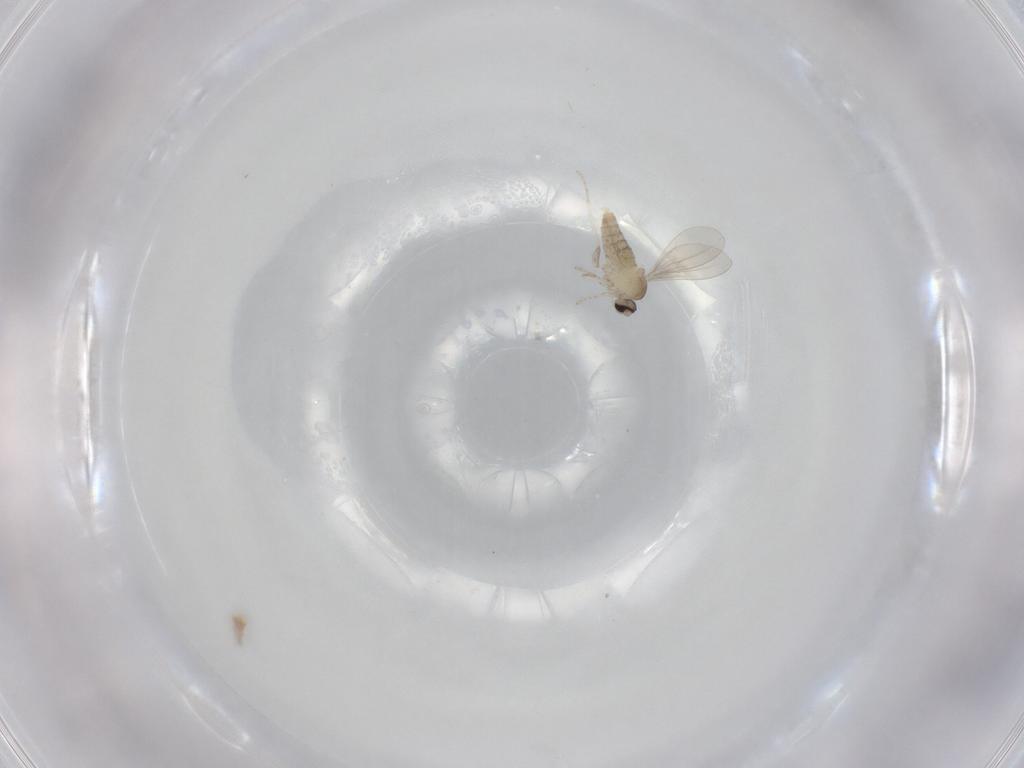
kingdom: Animalia
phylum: Arthropoda
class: Insecta
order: Diptera
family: Cecidomyiidae
